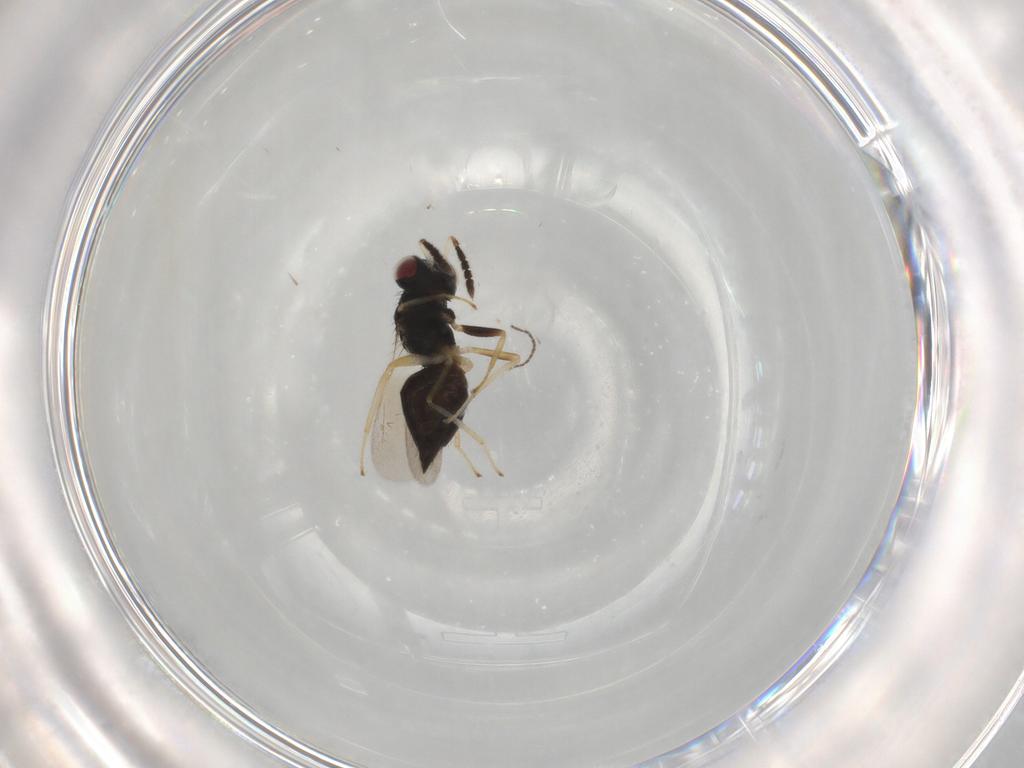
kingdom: Animalia
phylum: Arthropoda
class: Insecta
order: Hymenoptera
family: Eulophidae
